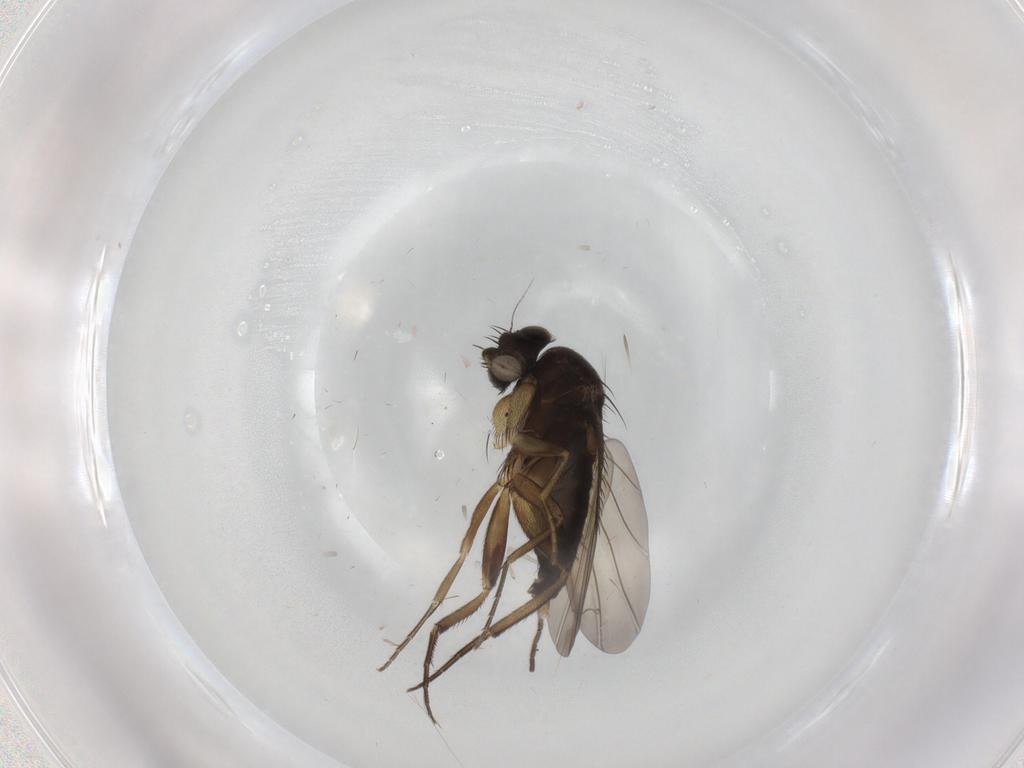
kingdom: Animalia
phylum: Arthropoda
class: Insecta
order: Diptera
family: Phoridae
